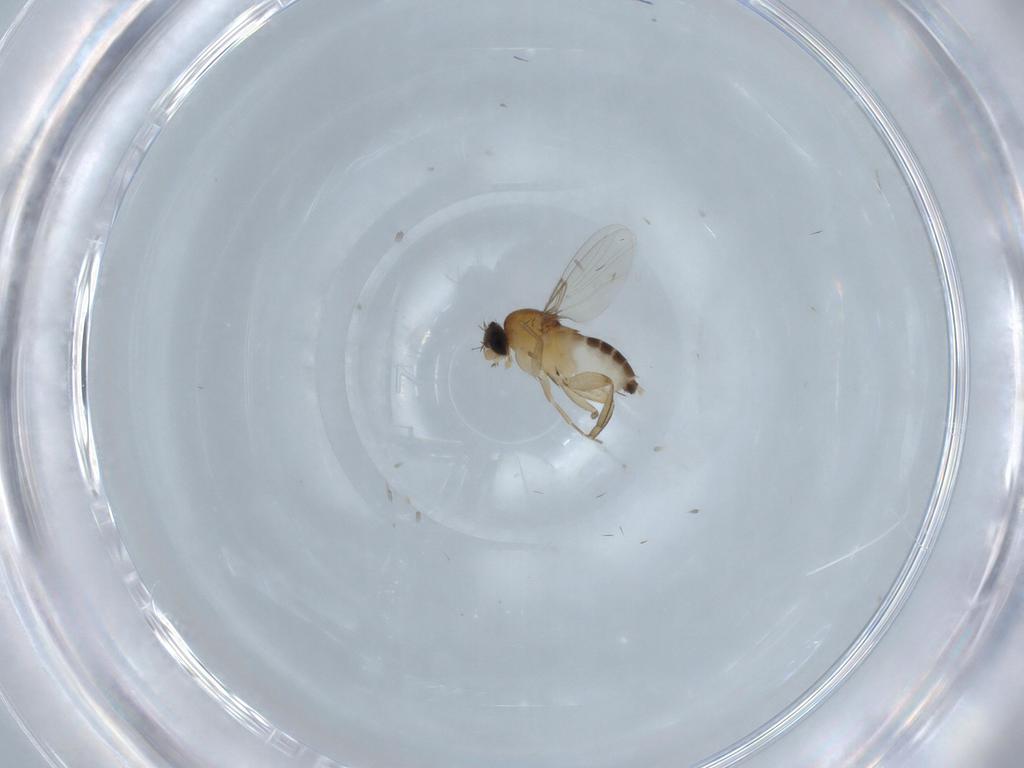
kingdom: Animalia
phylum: Arthropoda
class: Insecta
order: Diptera
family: Phoridae
